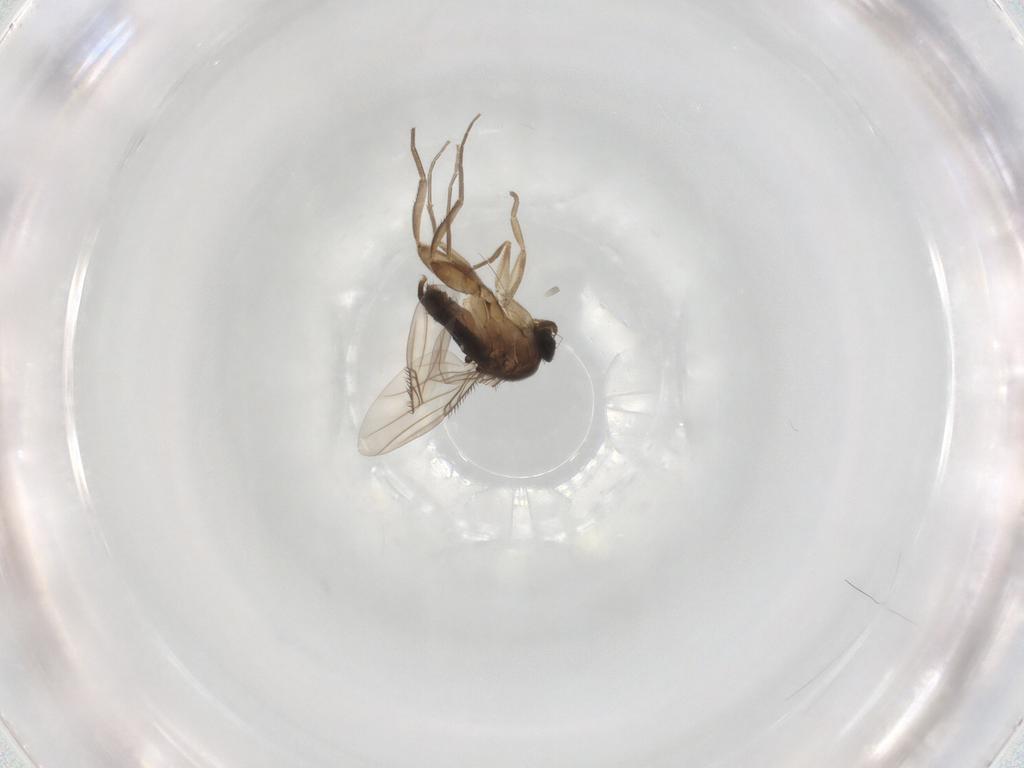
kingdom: Animalia
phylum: Arthropoda
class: Insecta
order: Diptera
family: Phoridae
